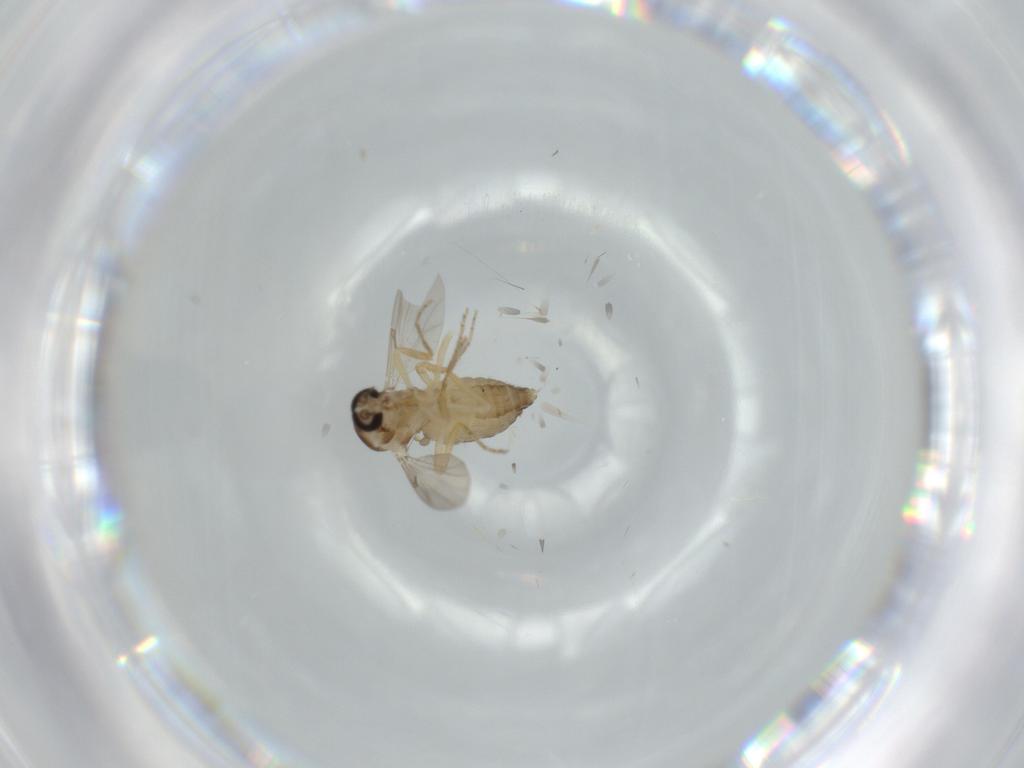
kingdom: Animalia
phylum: Arthropoda
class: Insecta
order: Diptera
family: Ceratopogonidae
